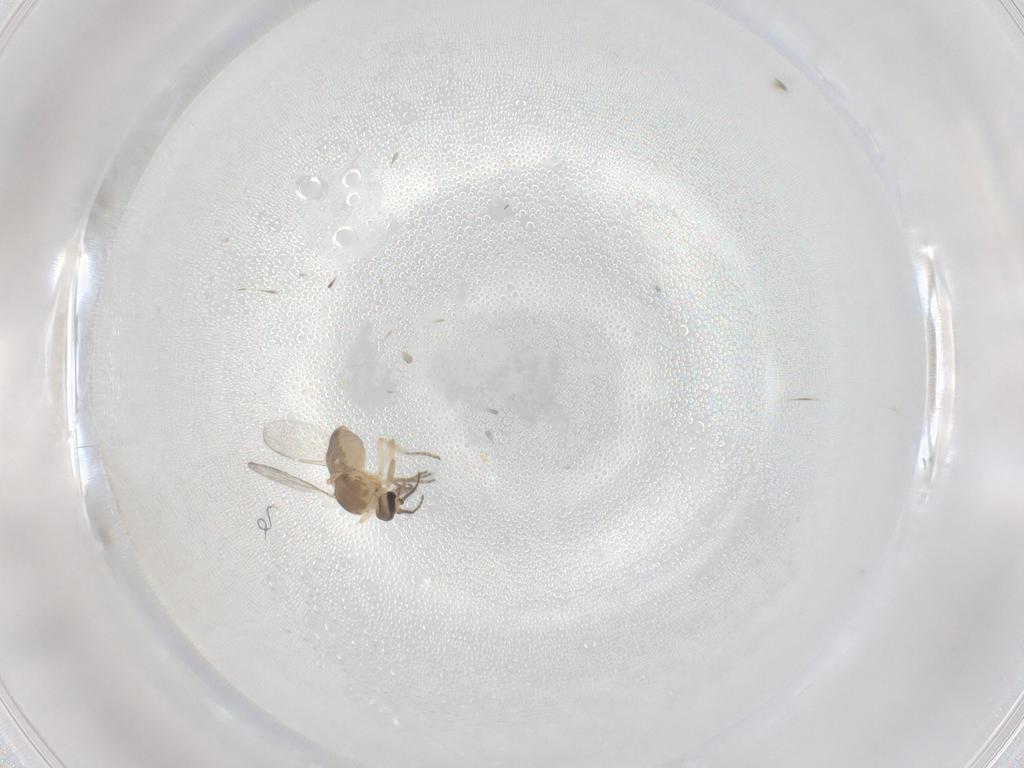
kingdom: Animalia
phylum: Arthropoda
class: Insecta
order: Diptera
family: Ceratopogonidae
